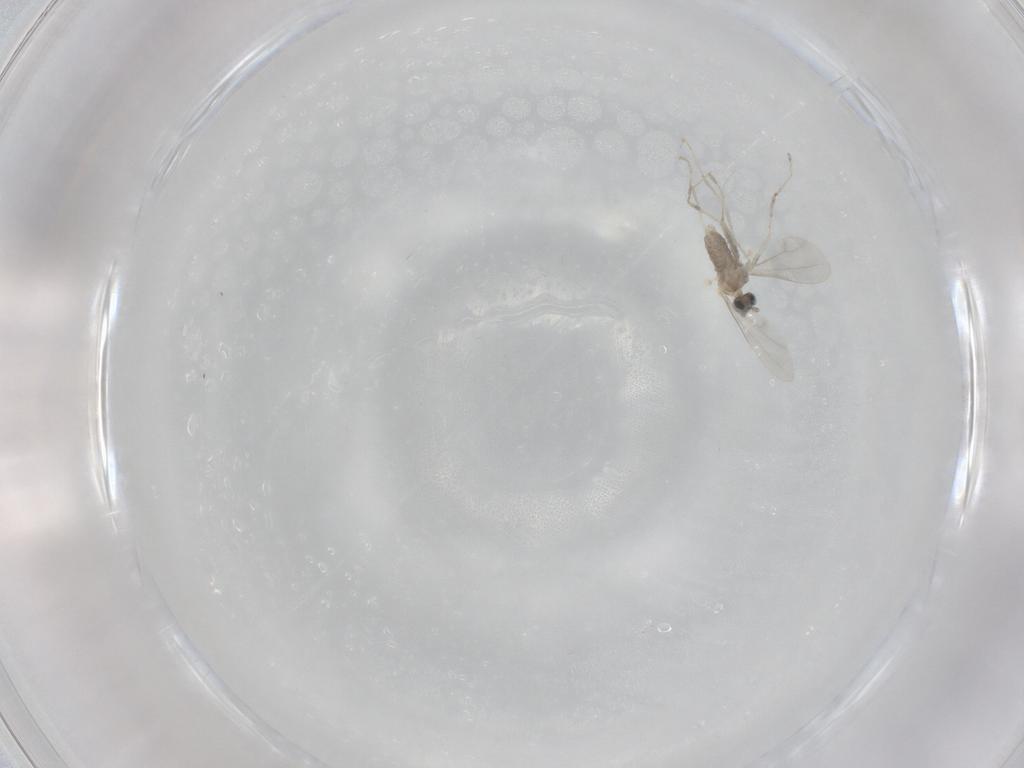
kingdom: Animalia
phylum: Arthropoda
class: Insecta
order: Diptera
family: Cecidomyiidae
